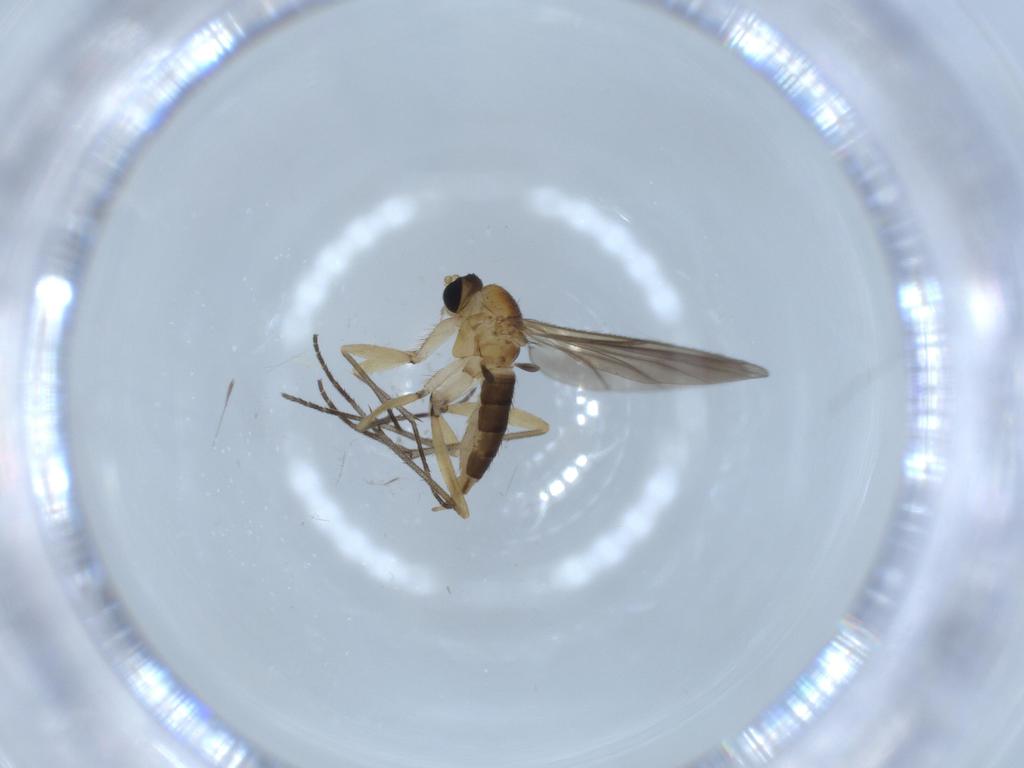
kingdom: Animalia
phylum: Arthropoda
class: Insecta
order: Diptera
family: Sciaridae
